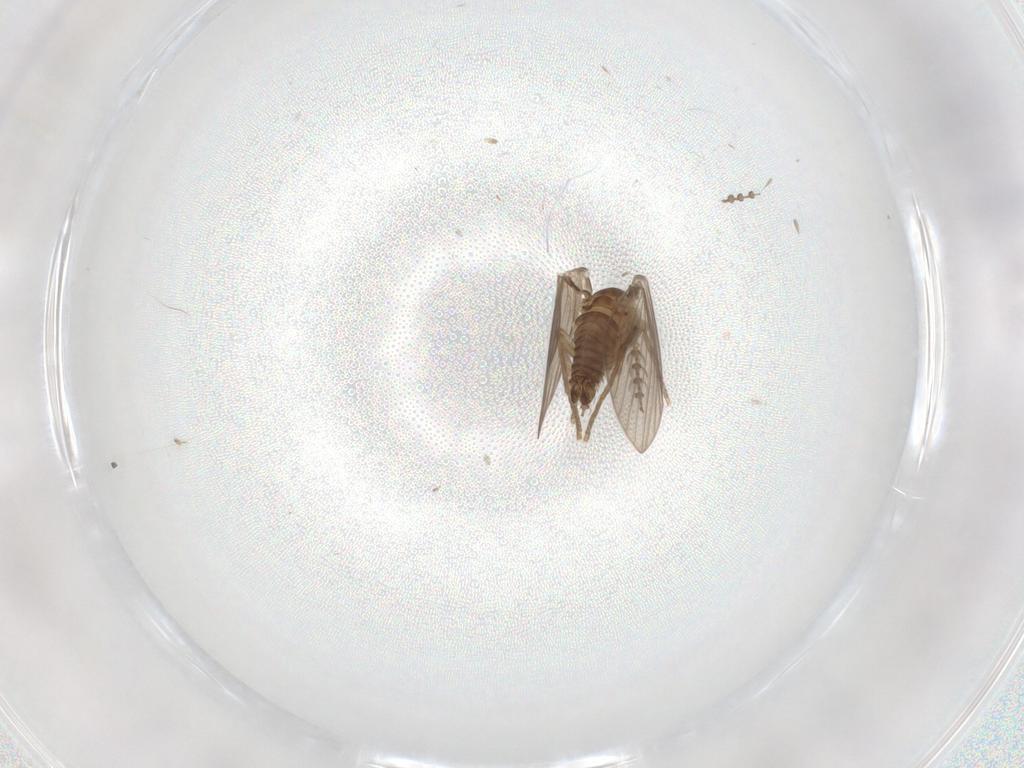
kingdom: Animalia
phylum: Arthropoda
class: Insecta
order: Diptera
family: Psychodidae
